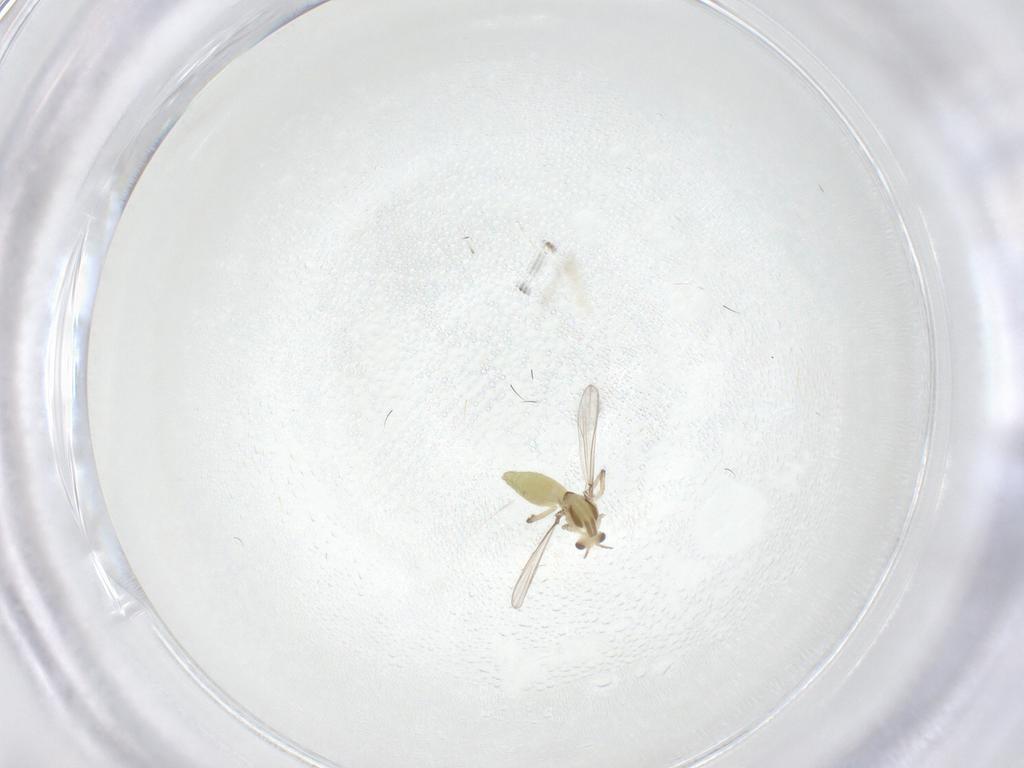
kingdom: Animalia
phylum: Arthropoda
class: Insecta
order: Diptera
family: Chironomidae
